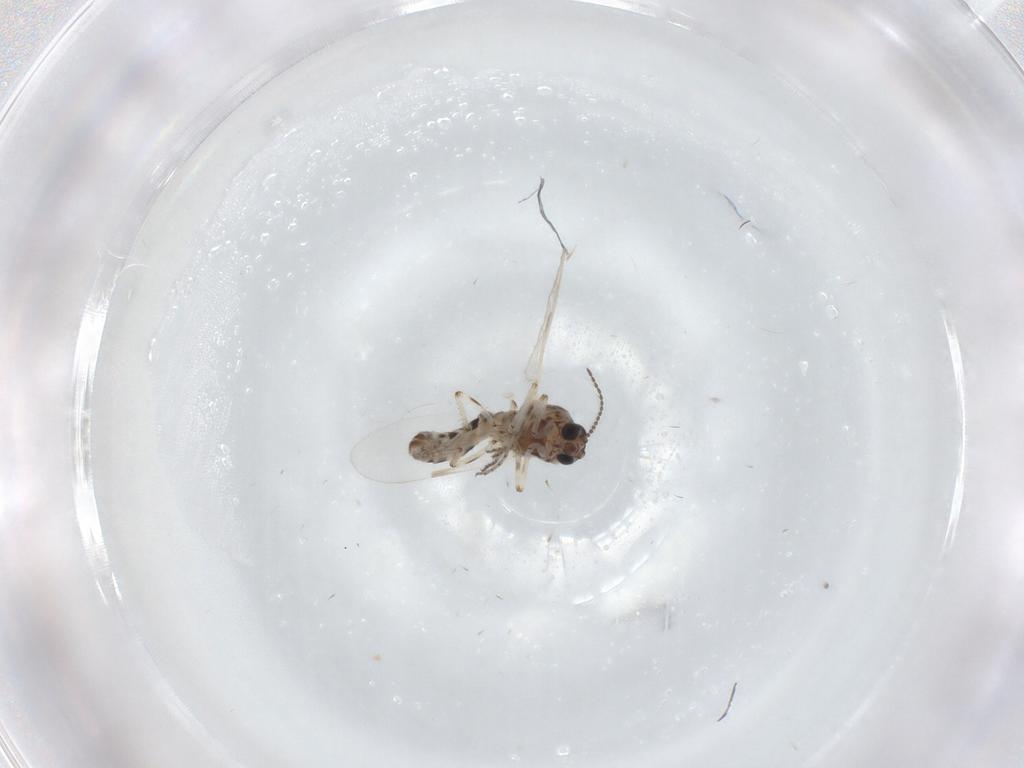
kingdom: Animalia
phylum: Arthropoda
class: Insecta
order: Diptera
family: Ceratopogonidae
